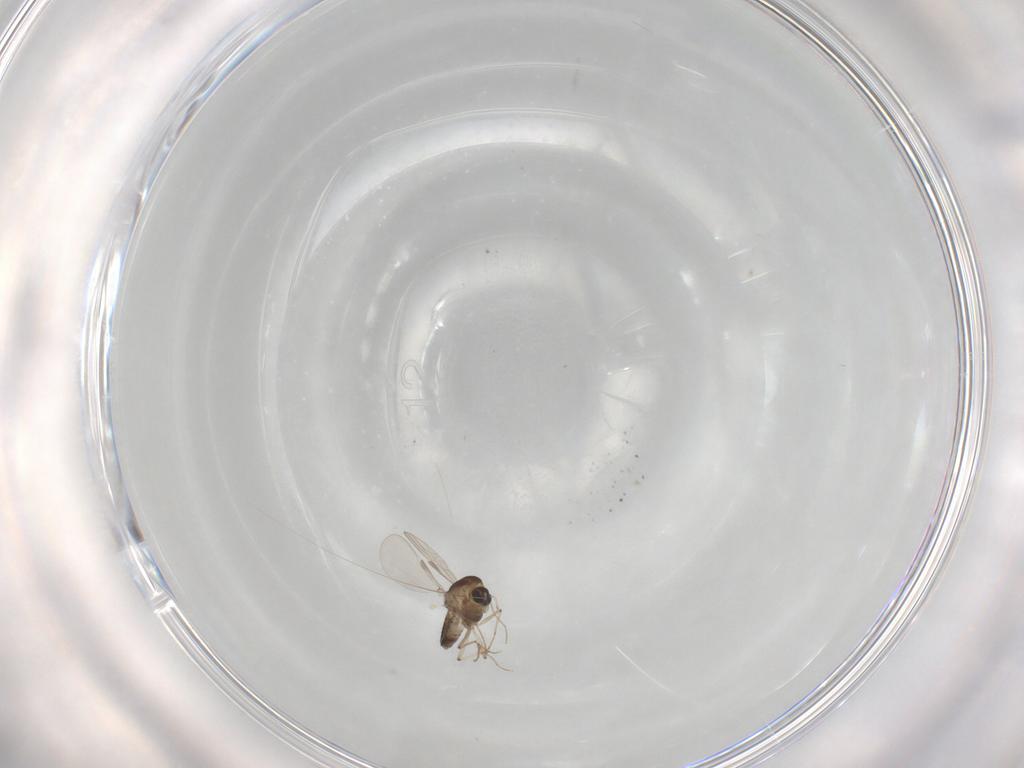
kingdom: Animalia
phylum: Arthropoda
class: Insecta
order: Diptera
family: Chironomidae
